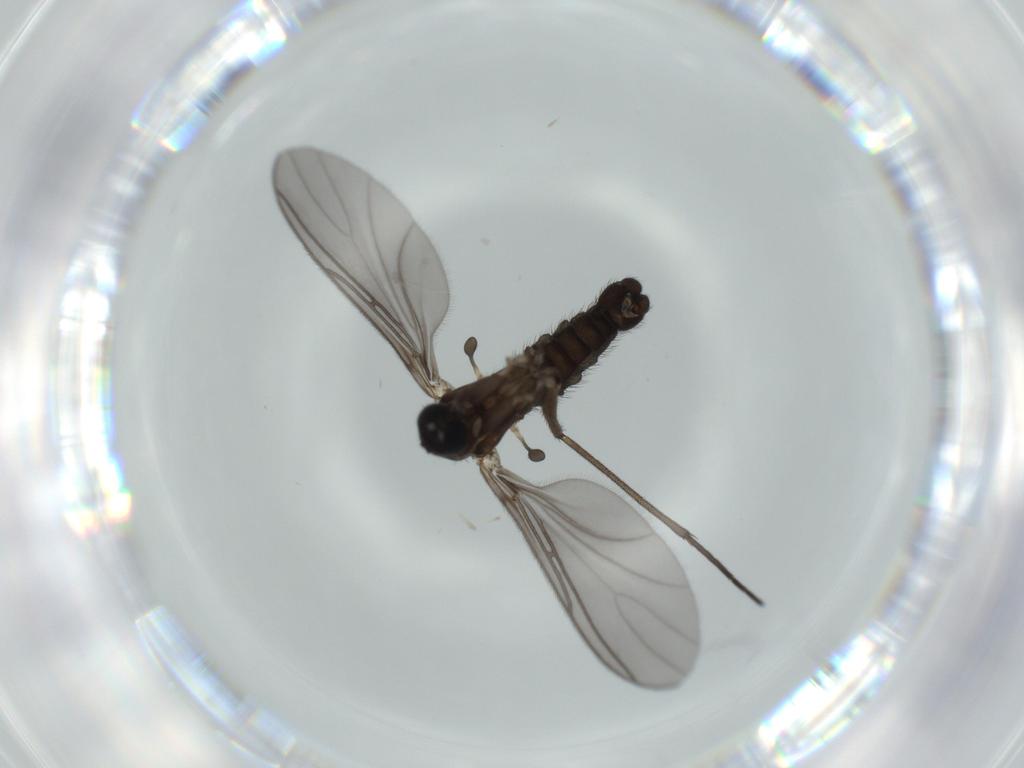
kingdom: Animalia
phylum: Arthropoda
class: Insecta
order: Diptera
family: Sciaridae
